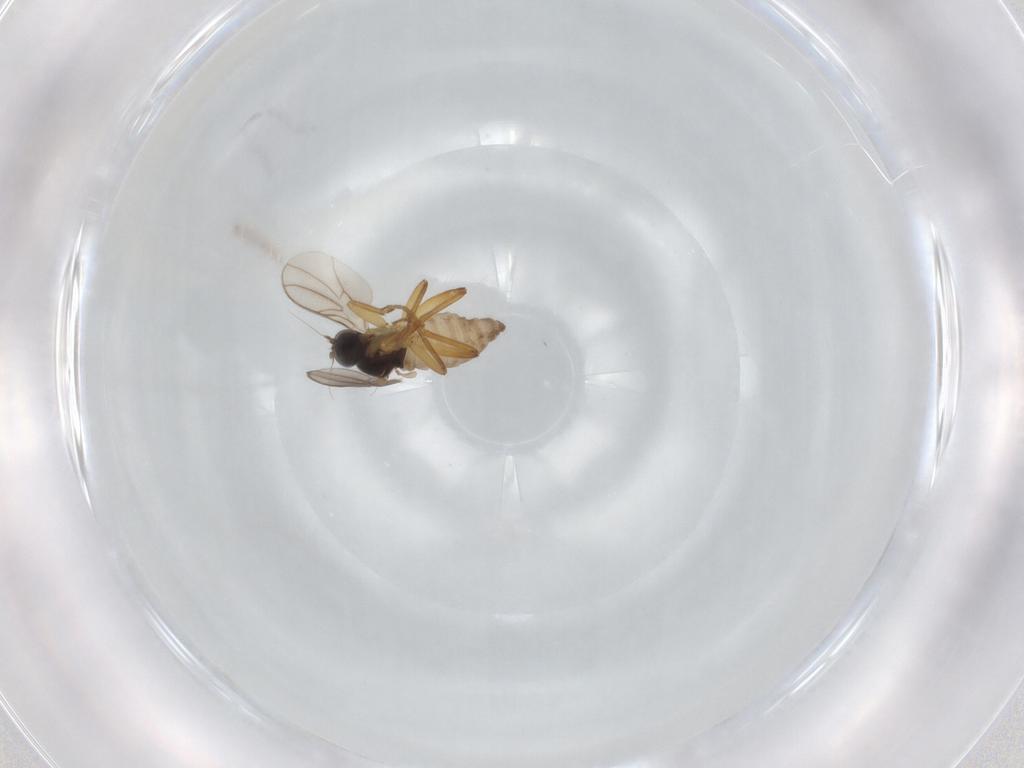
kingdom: Animalia
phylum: Arthropoda
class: Insecta
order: Diptera
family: Hybotidae
